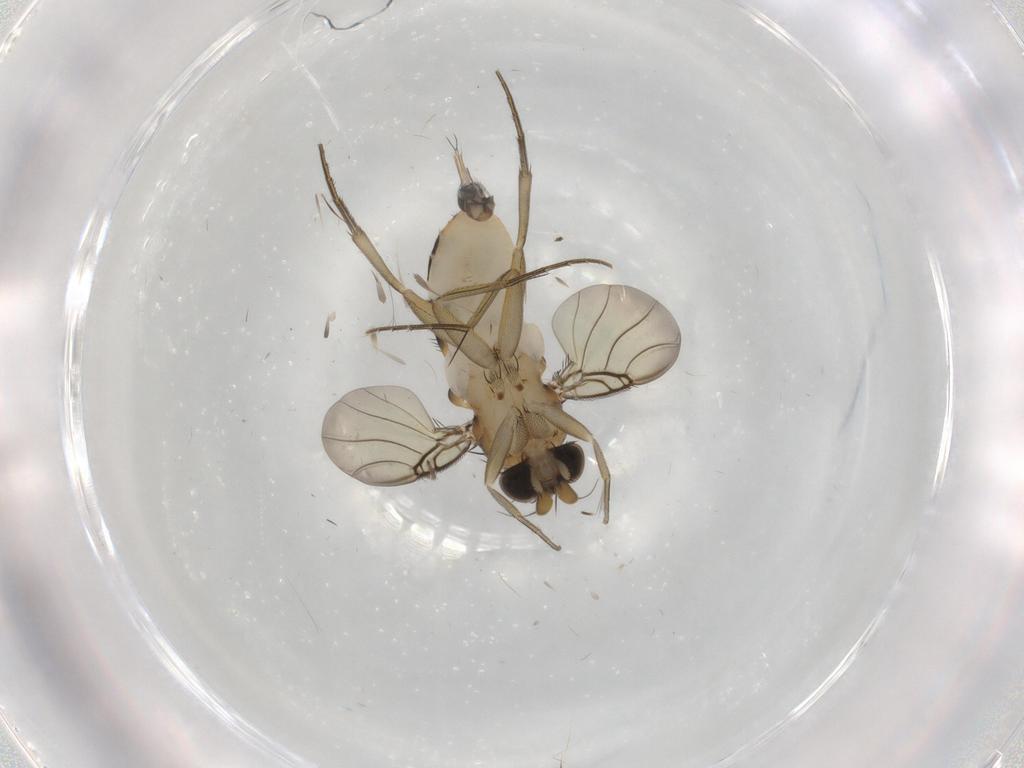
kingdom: Animalia
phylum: Arthropoda
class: Insecta
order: Diptera
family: Phoridae
